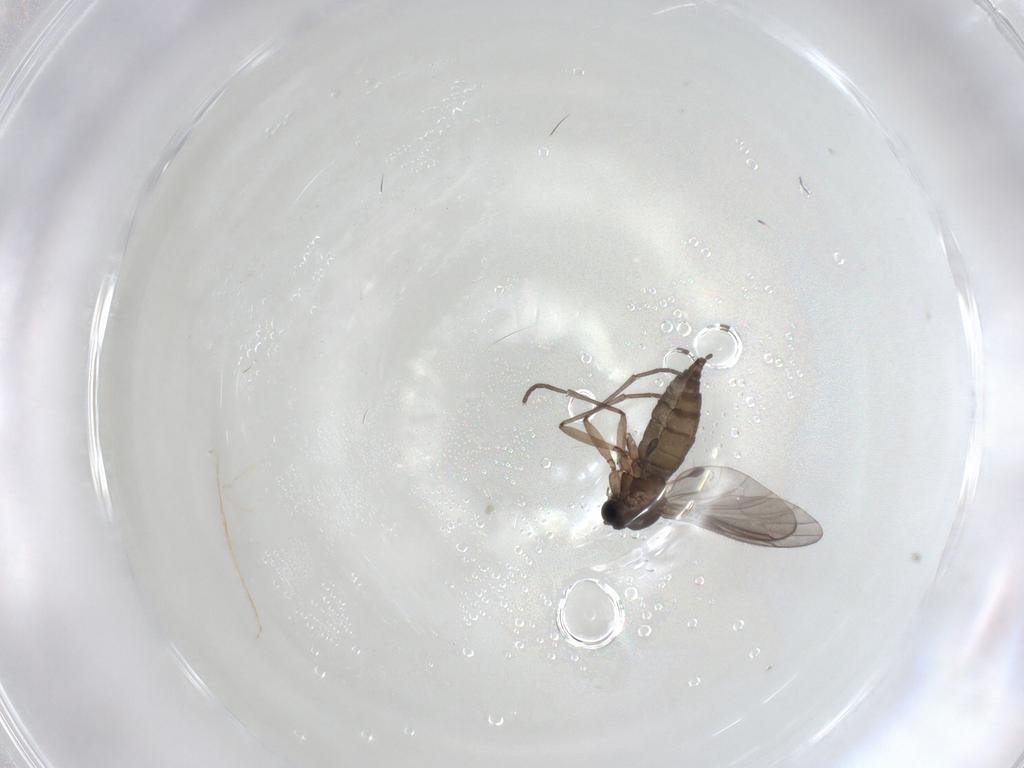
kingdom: Animalia
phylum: Arthropoda
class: Insecta
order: Diptera
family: Sciaridae
